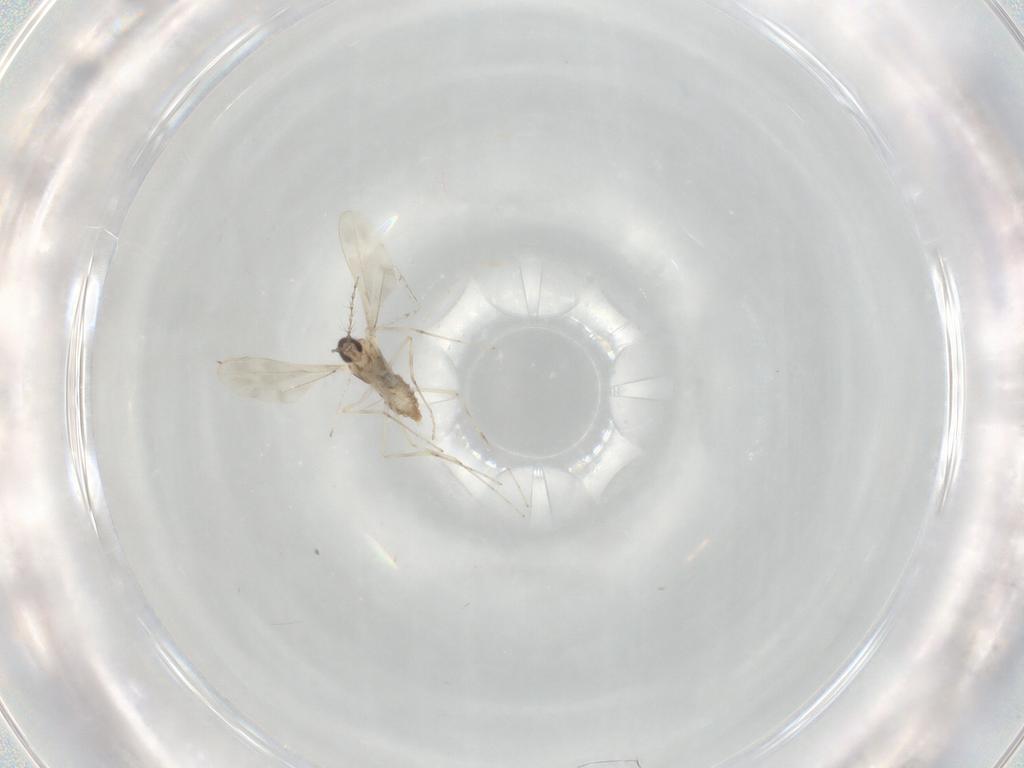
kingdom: Animalia
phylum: Arthropoda
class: Insecta
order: Diptera
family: Cecidomyiidae
